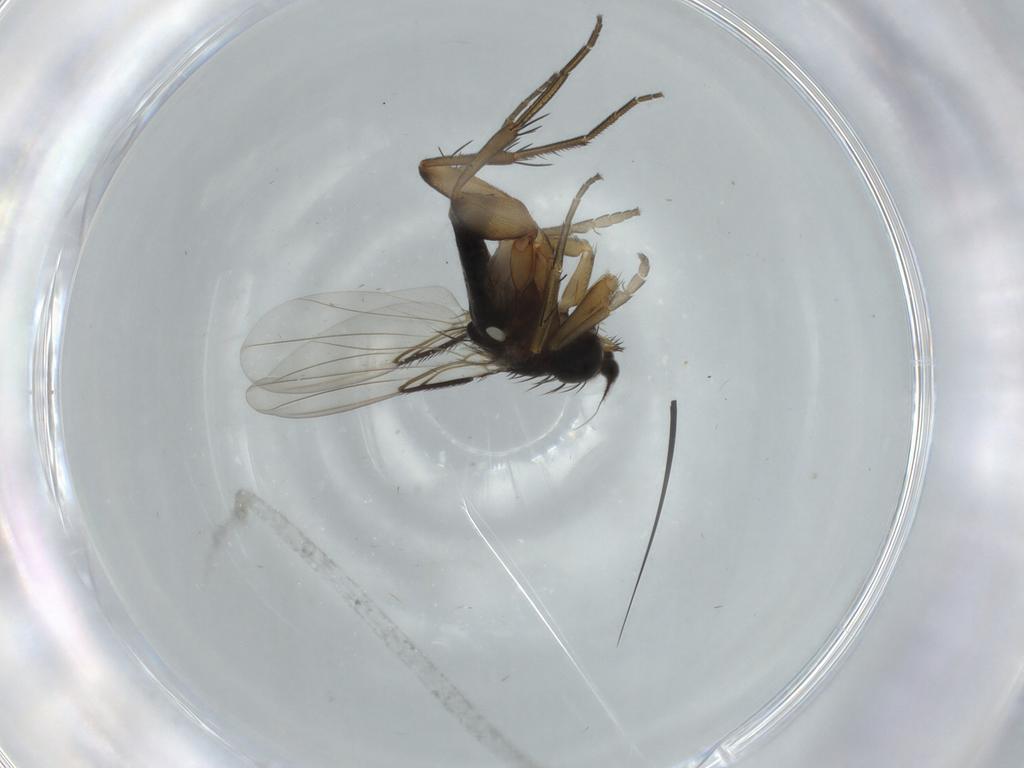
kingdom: Animalia
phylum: Arthropoda
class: Insecta
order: Diptera
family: Phoridae
